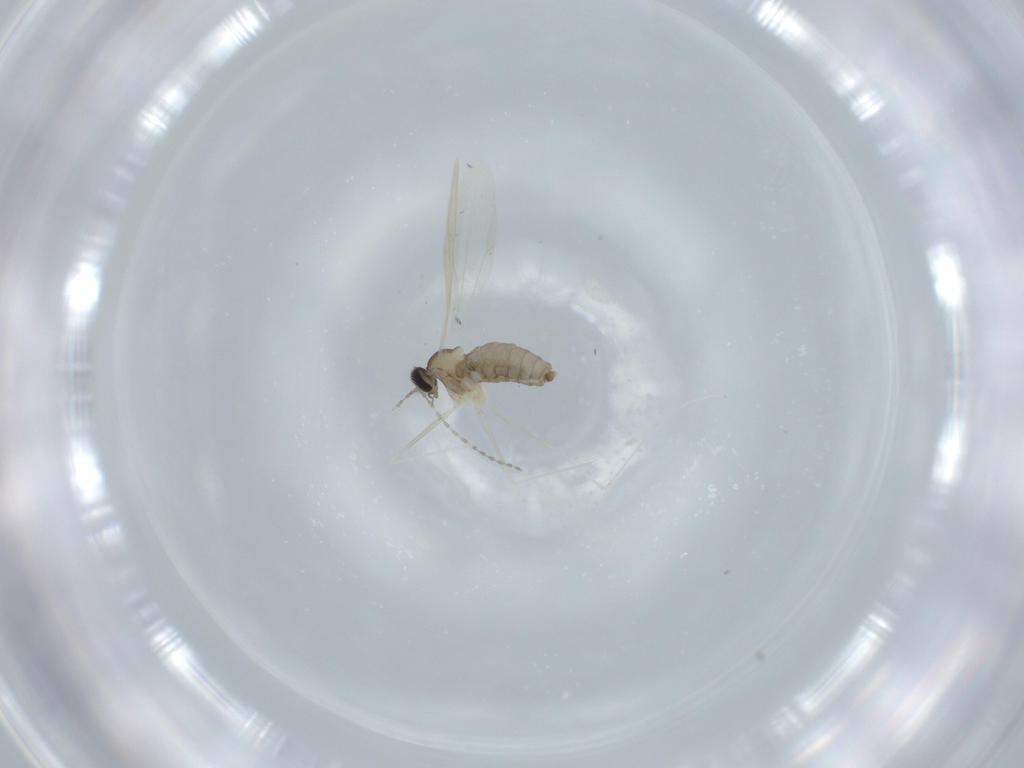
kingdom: Animalia
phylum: Arthropoda
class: Insecta
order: Diptera
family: Cecidomyiidae
